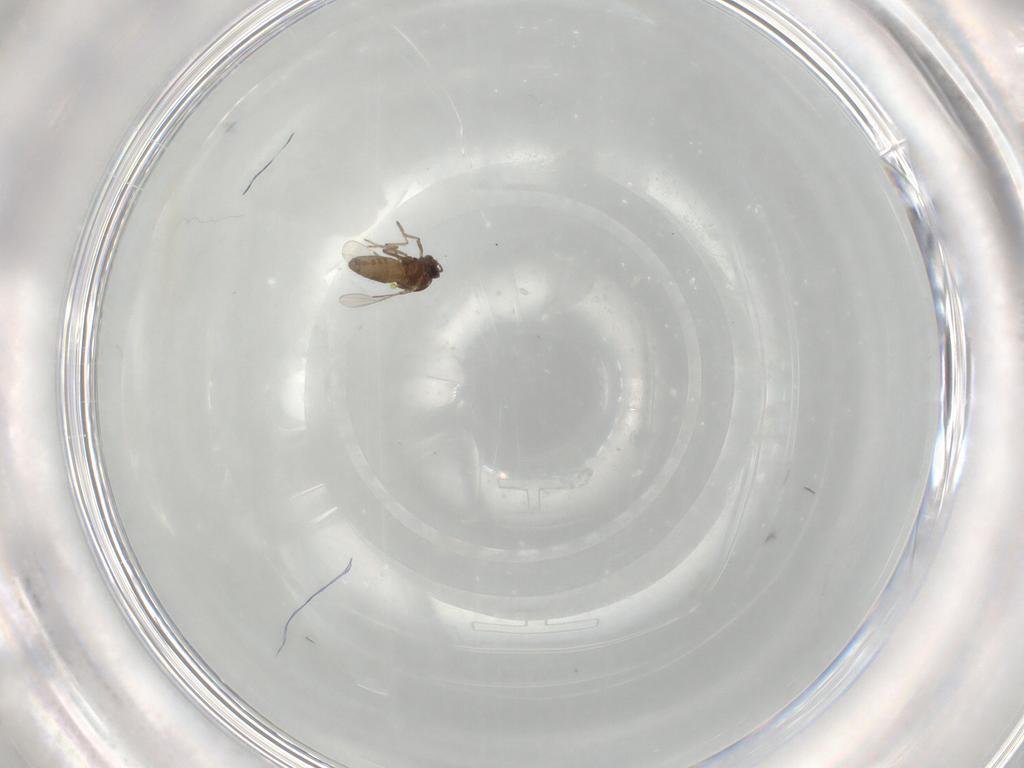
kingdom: Animalia
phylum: Arthropoda
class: Insecta
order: Diptera
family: Ceratopogonidae
